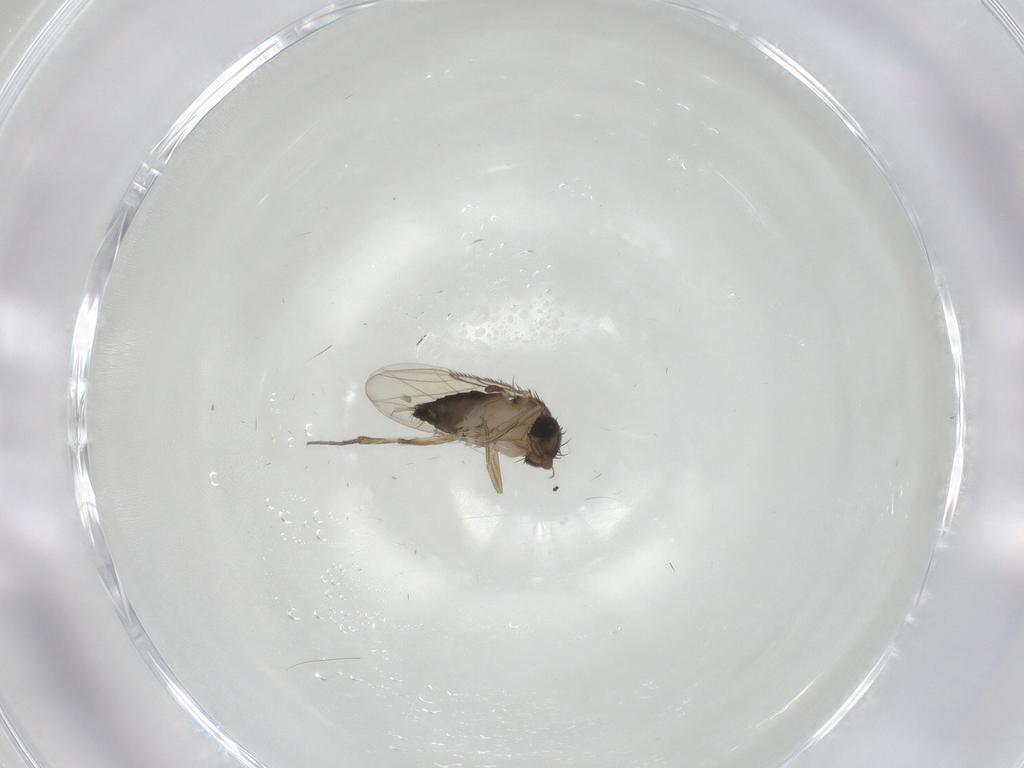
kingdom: Animalia
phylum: Arthropoda
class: Insecta
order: Diptera
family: Phoridae
